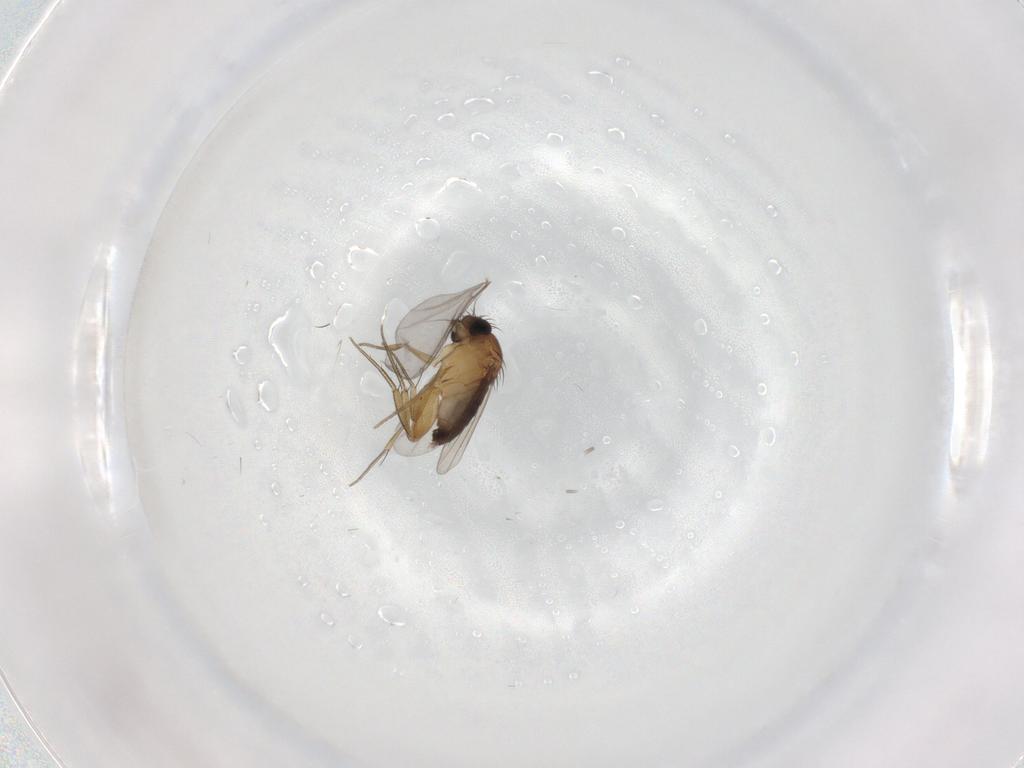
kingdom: Animalia
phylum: Arthropoda
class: Insecta
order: Diptera
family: Phoridae
